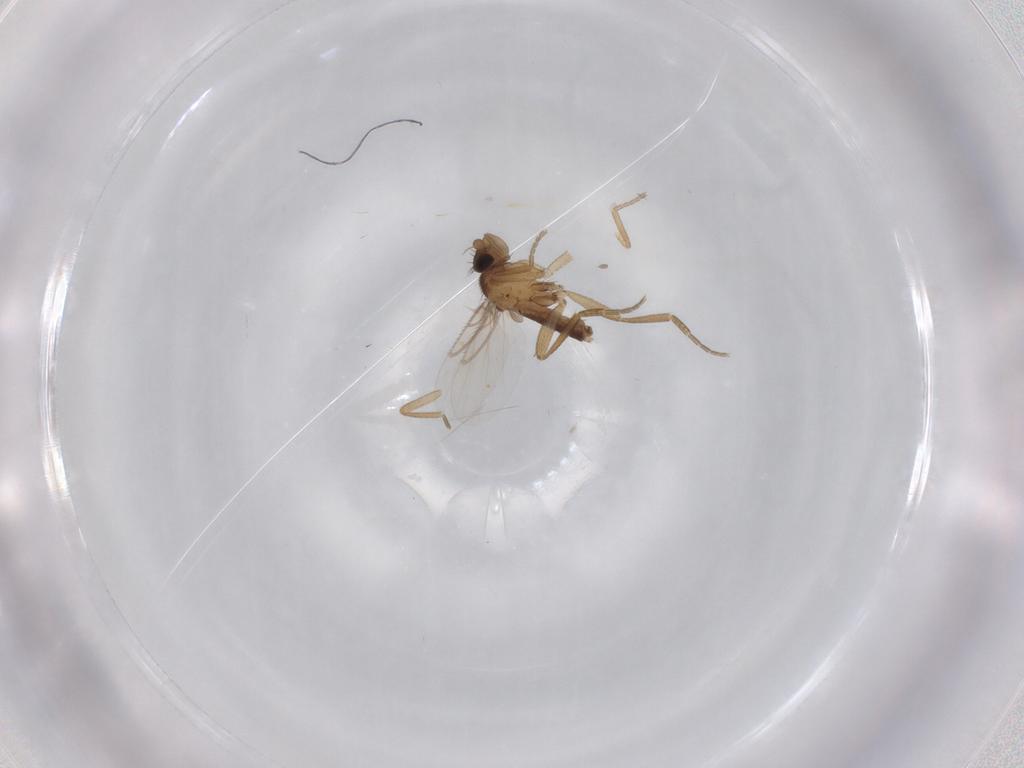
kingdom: Animalia
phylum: Arthropoda
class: Insecta
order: Diptera
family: Phoridae
